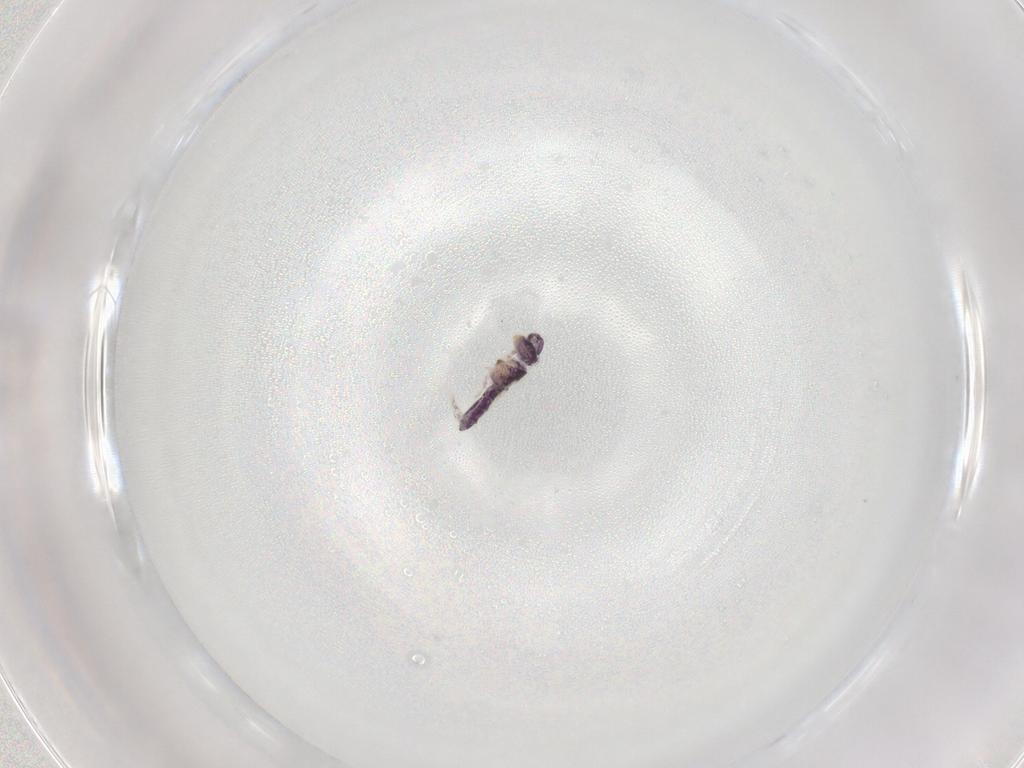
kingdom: Animalia
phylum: Arthropoda
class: Collembola
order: Entomobryomorpha
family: Isotomidae
